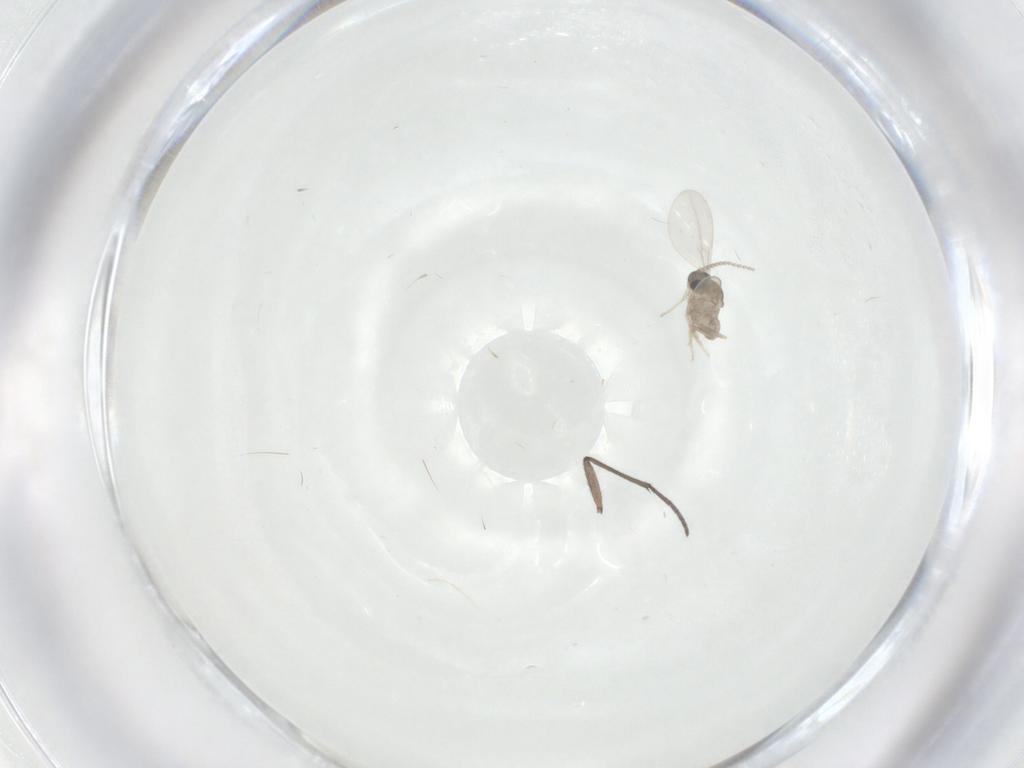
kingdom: Animalia
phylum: Arthropoda
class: Insecta
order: Diptera
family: Cecidomyiidae
